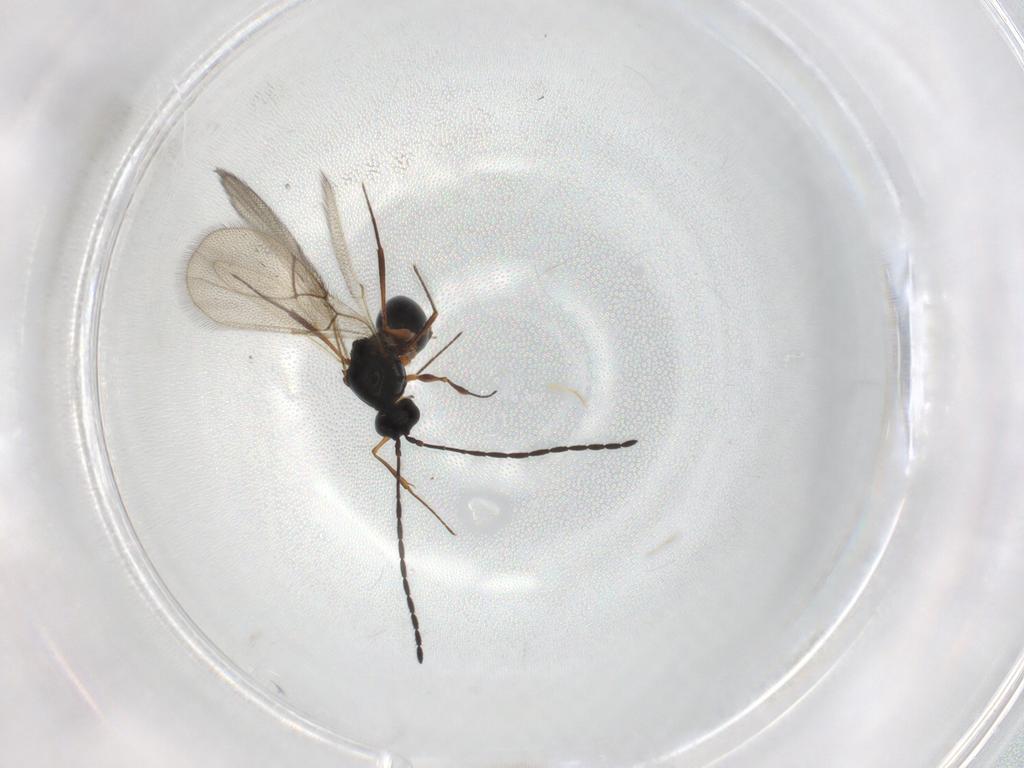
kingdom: Animalia
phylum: Arthropoda
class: Insecta
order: Hymenoptera
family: Figitidae
